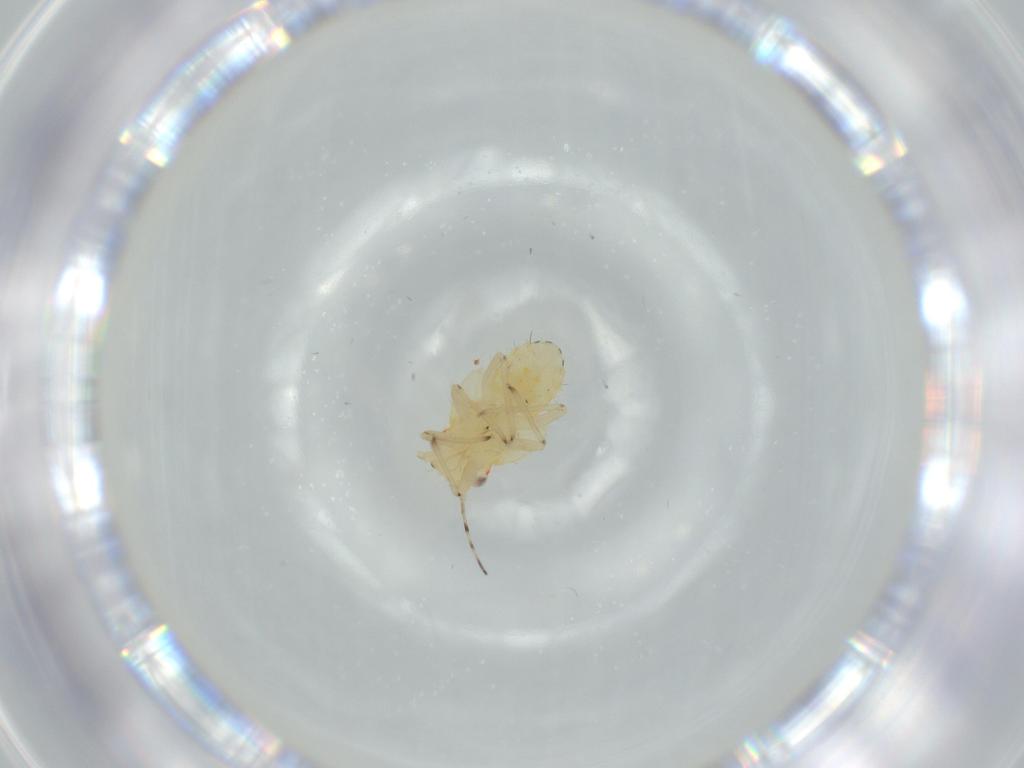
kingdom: Animalia
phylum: Arthropoda
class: Insecta
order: Hemiptera
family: Psyllidae
